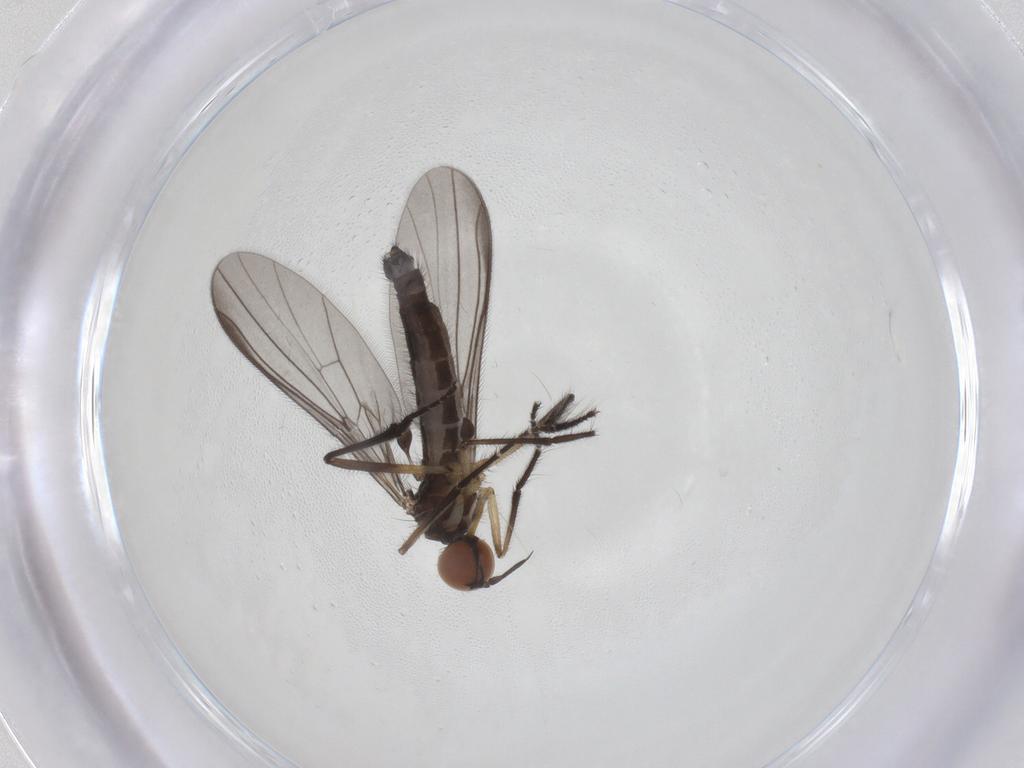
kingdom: Animalia
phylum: Arthropoda
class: Insecta
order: Diptera
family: Empididae
